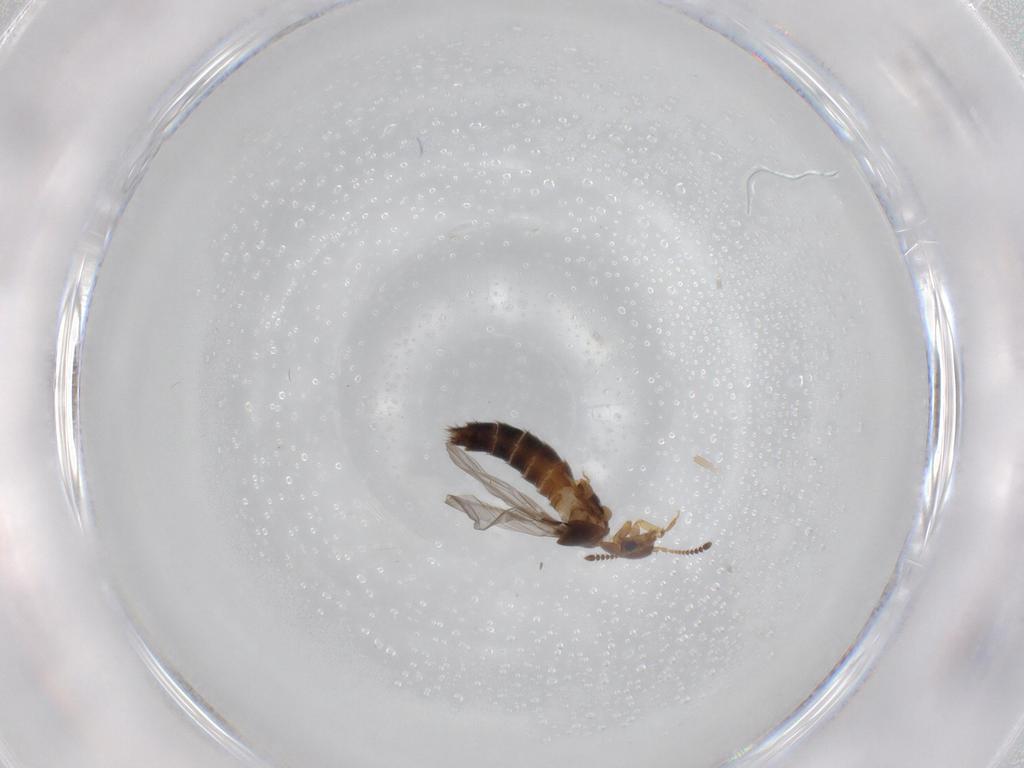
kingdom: Animalia
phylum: Arthropoda
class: Insecta
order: Coleoptera
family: Staphylinidae
